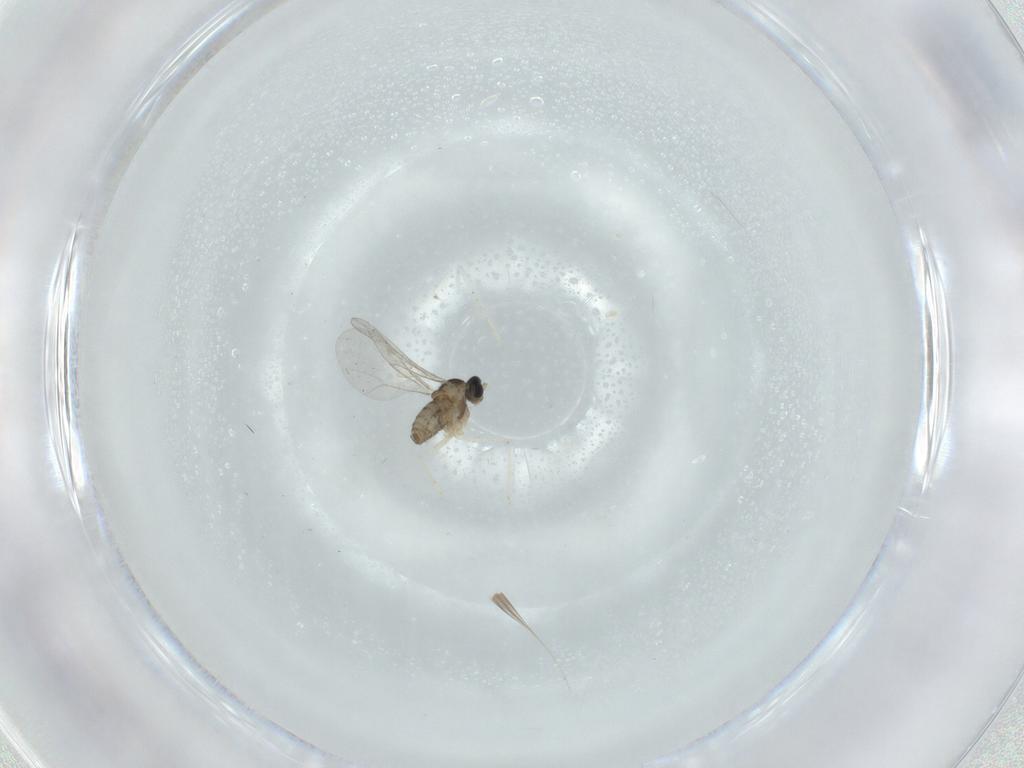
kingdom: Animalia
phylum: Arthropoda
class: Insecta
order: Diptera
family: Cecidomyiidae
